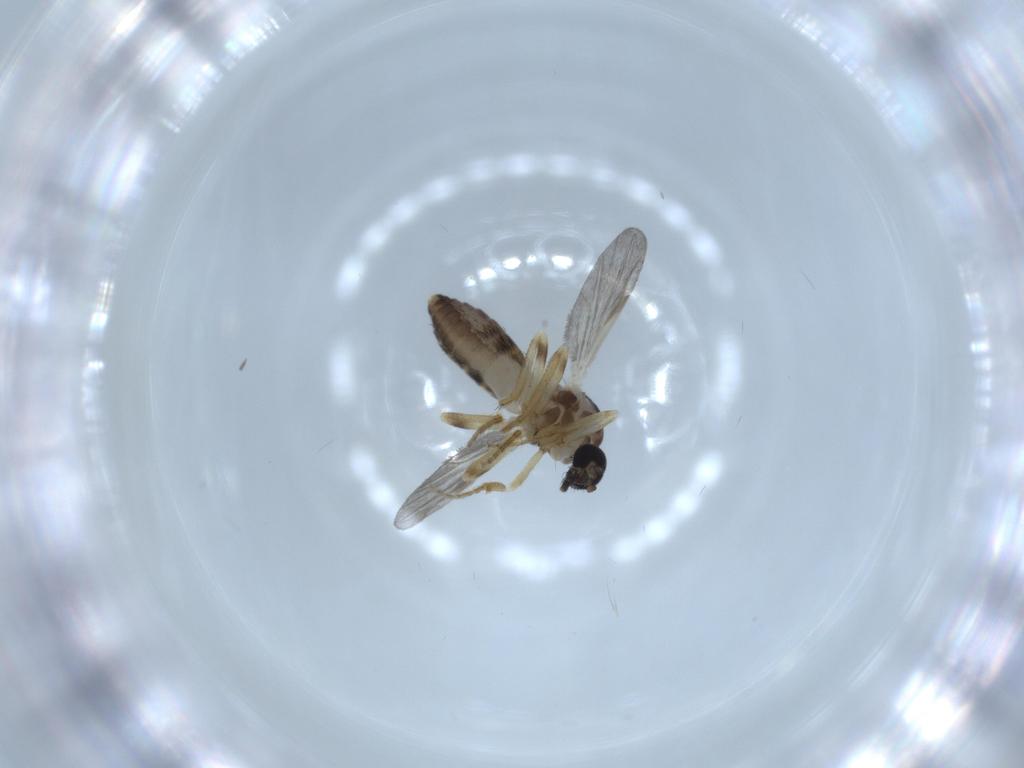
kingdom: Animalia
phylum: Arthropoda
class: Insecta
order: Diptera
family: Ceratopogonidae
